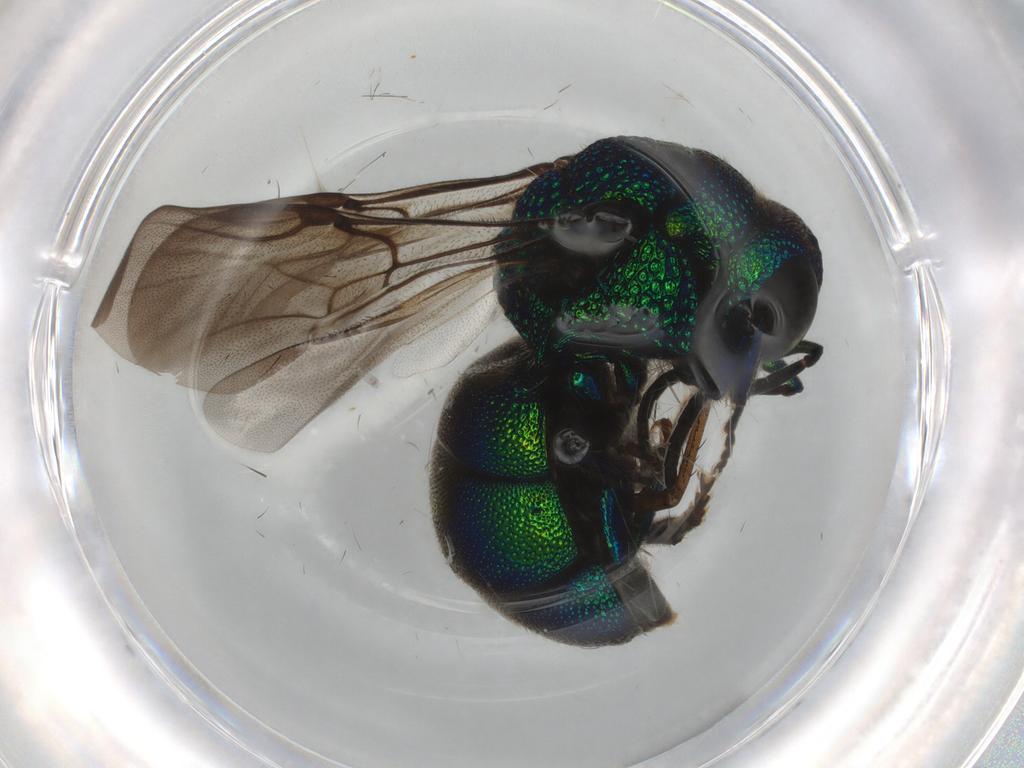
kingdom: Animalia
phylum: Arthropoda
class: Insecta
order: Hymenoptera
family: Chrysididae
